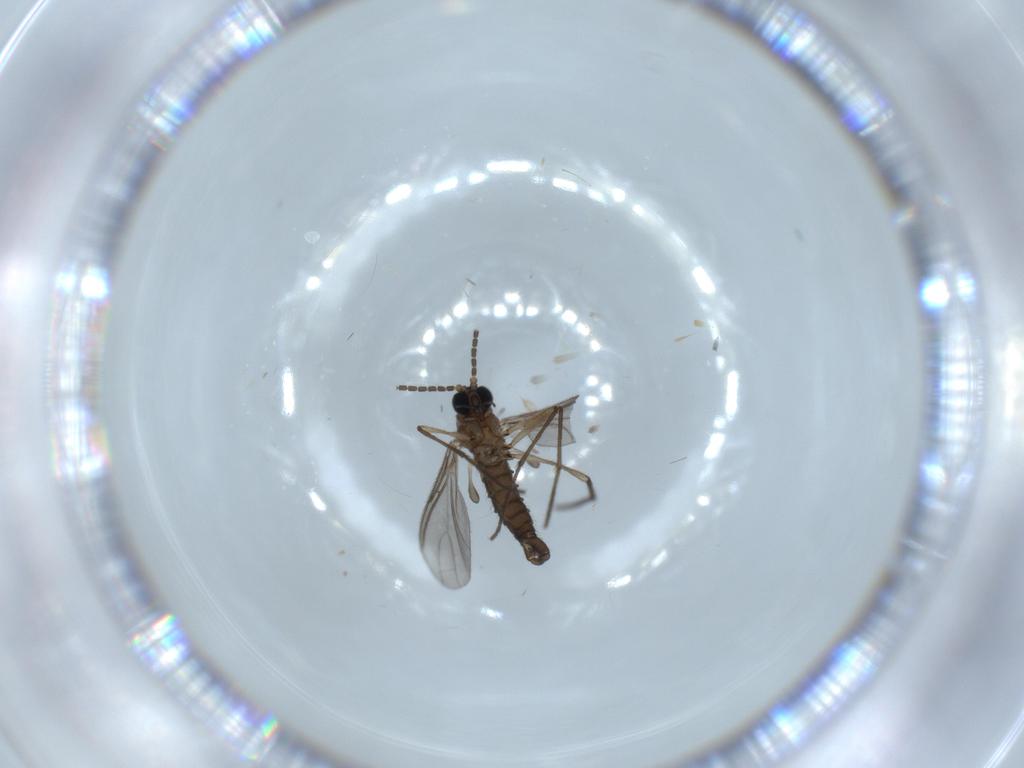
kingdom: Animalia
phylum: Arthropoda
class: Insecta
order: Diptera
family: Sciaridae
